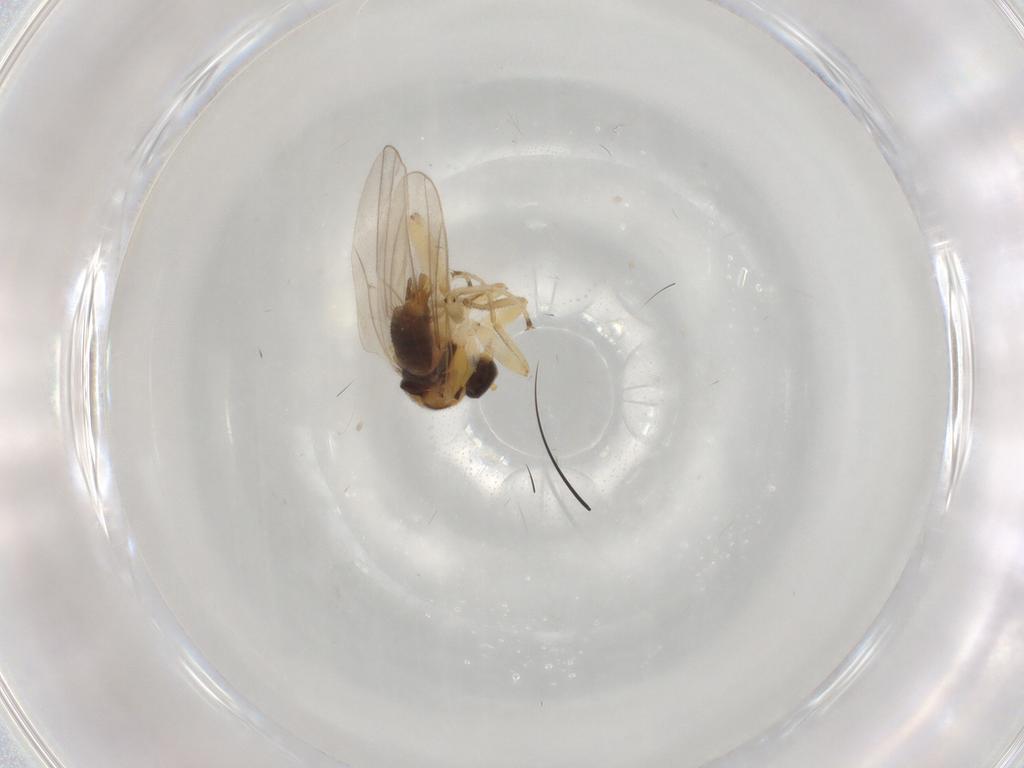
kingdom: Animalia
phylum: Arthropoda
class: Insecta
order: Diptera
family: Hybotidae
